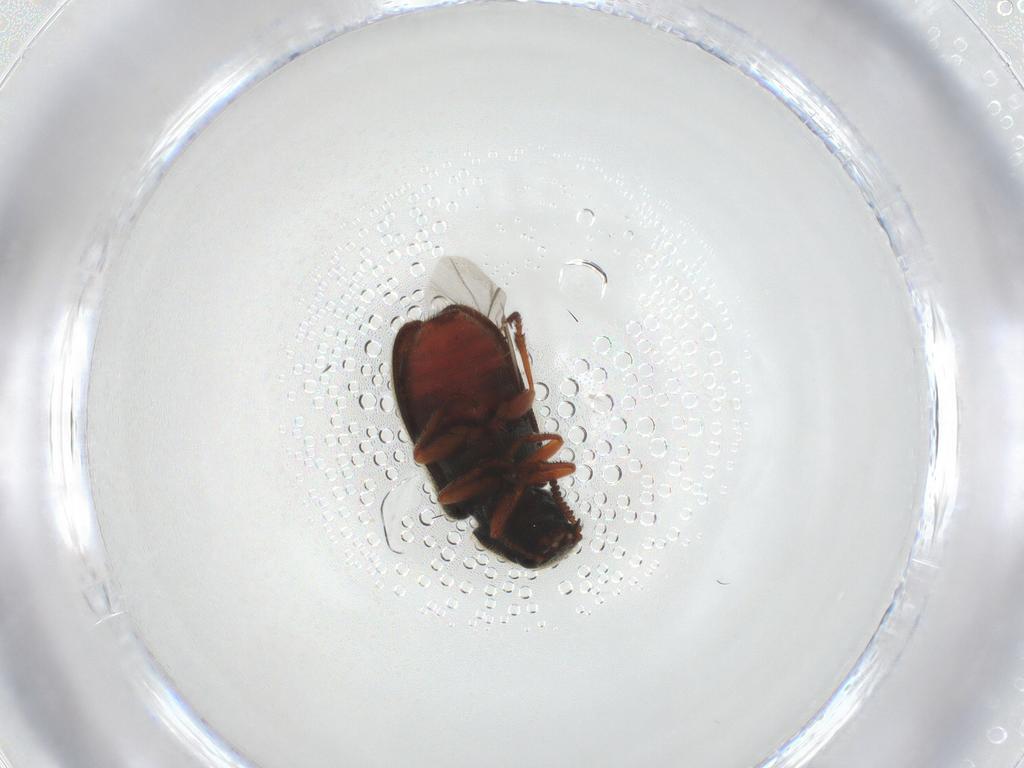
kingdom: Animalia
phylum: Arthropoda
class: Insecta
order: Coleoptera
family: Melyridae
